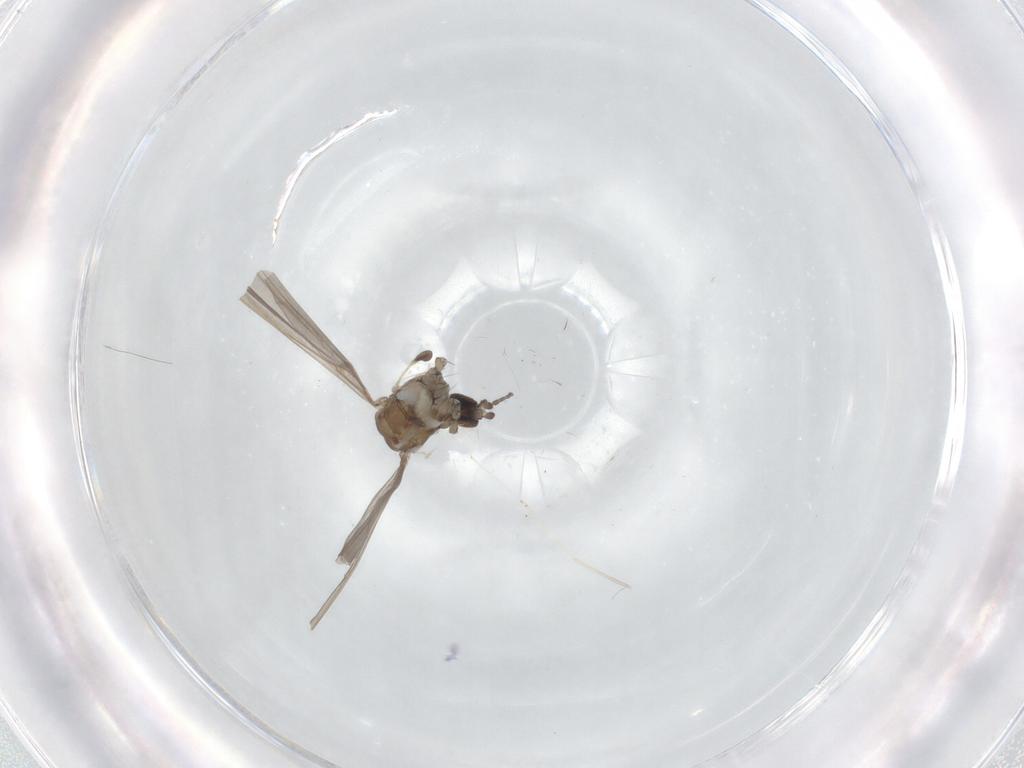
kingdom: Animalia
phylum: Arthropoda
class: Insecta
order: Diptera
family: Limoniidae
